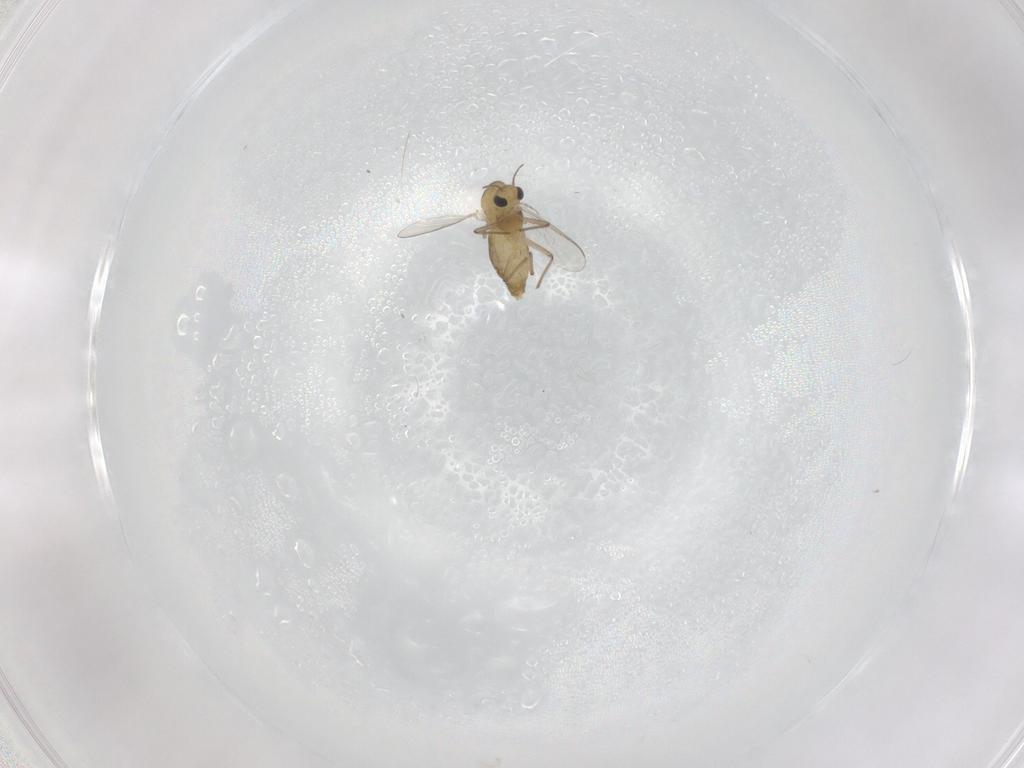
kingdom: Animalia
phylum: Arthropoda
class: Insecta
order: Diptera
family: Chironomidae
